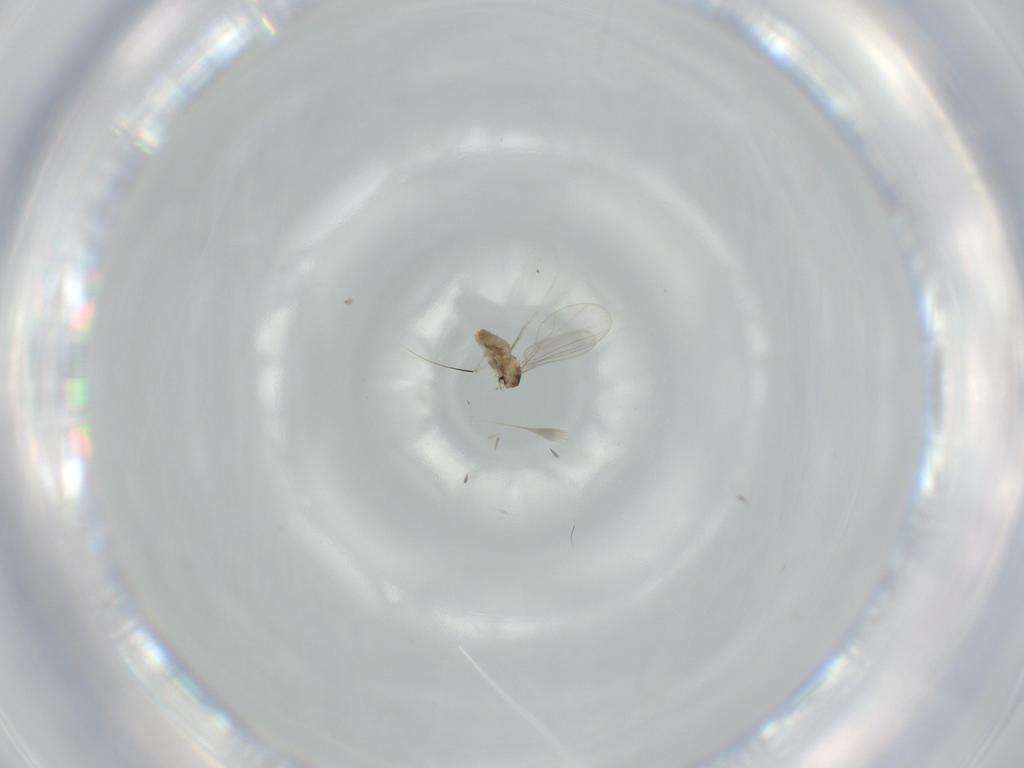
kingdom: Animalia
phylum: Arthropoda
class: Insecta
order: Diptera
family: Cecidomyiidae
